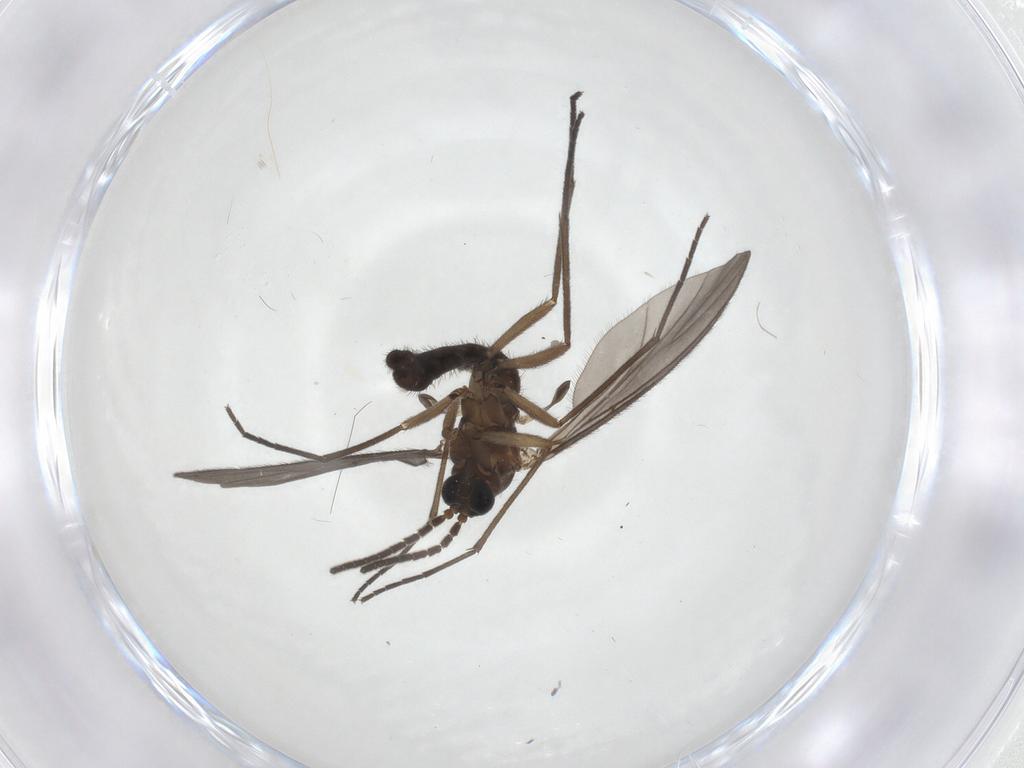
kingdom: Animalia
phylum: Arthropoda
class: Insecta
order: Diptera
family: Sciaridae
